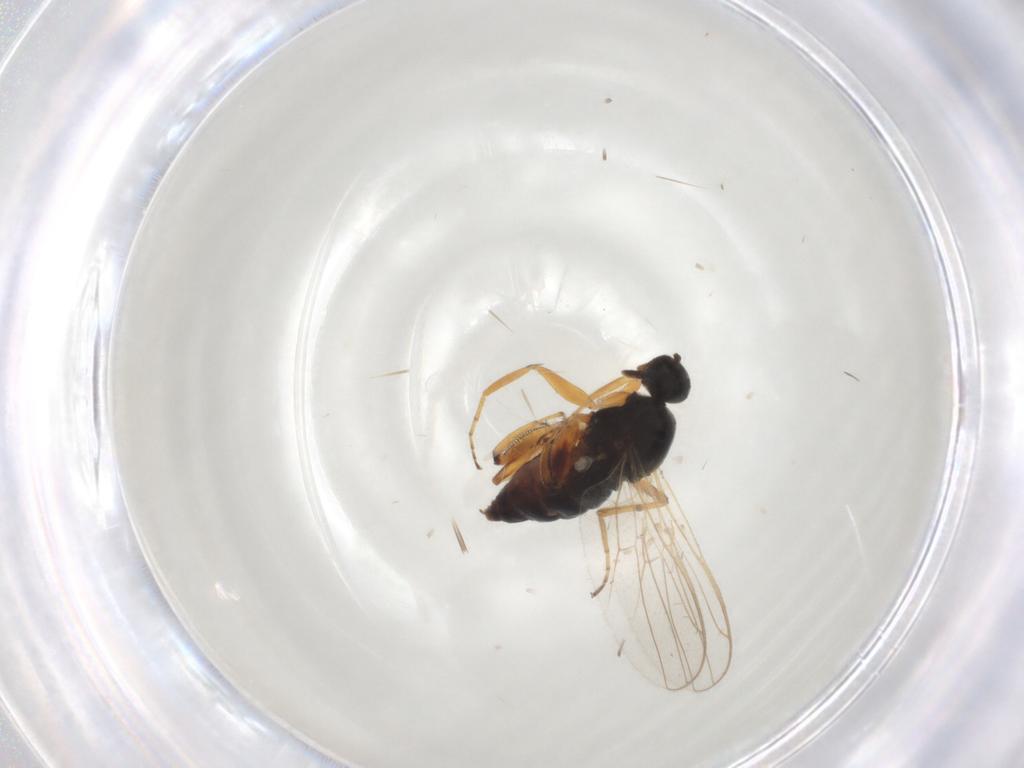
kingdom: Animalia
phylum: Arthropoda
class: Insecta
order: Diptera
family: Hybotidae
